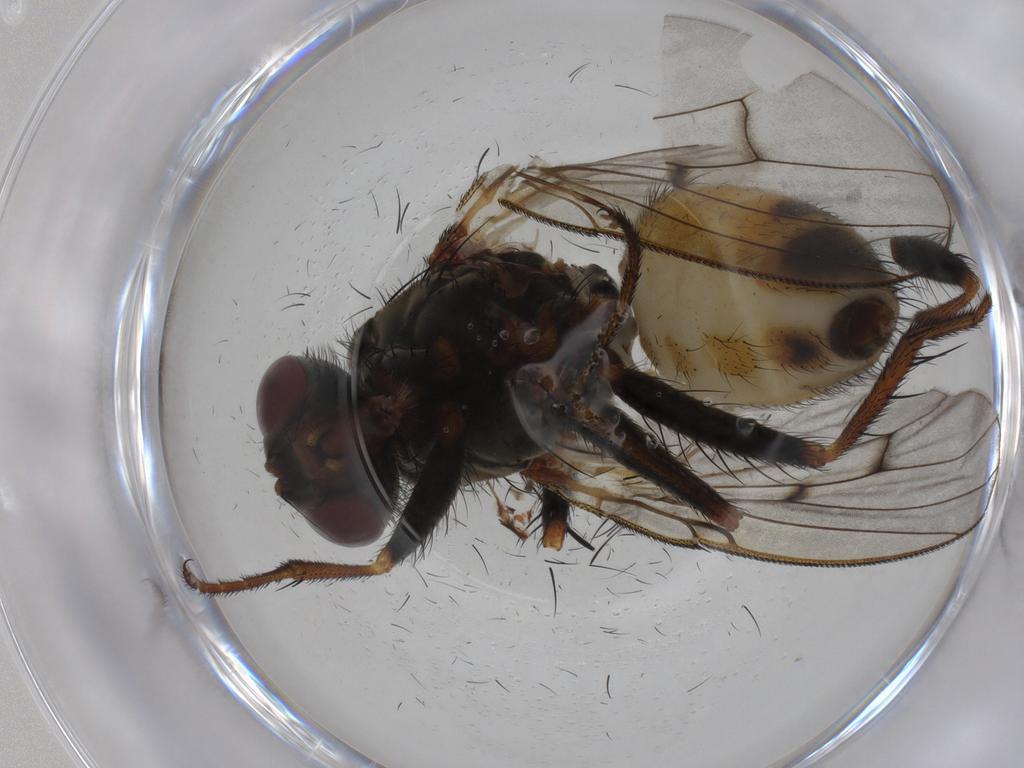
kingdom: Animalia
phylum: Arthropoda
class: Insecta
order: Diptera
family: Muscidae
